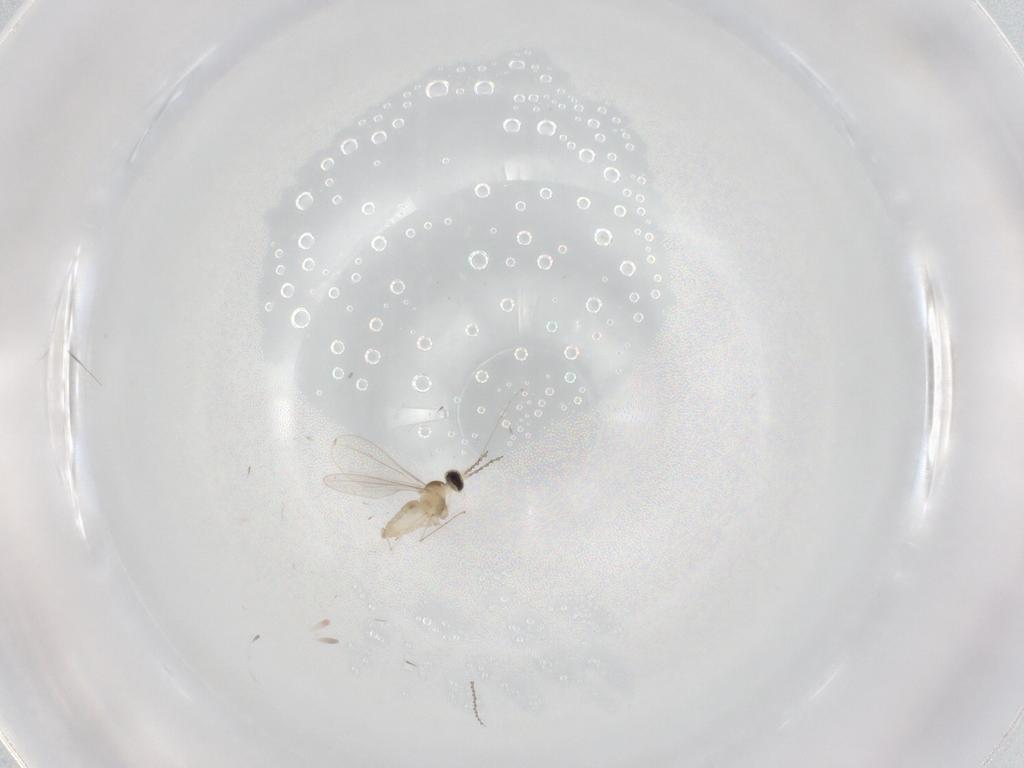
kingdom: Animalia
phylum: Arthropoda
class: Insecta
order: Diptera
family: Cecidomyiidae
